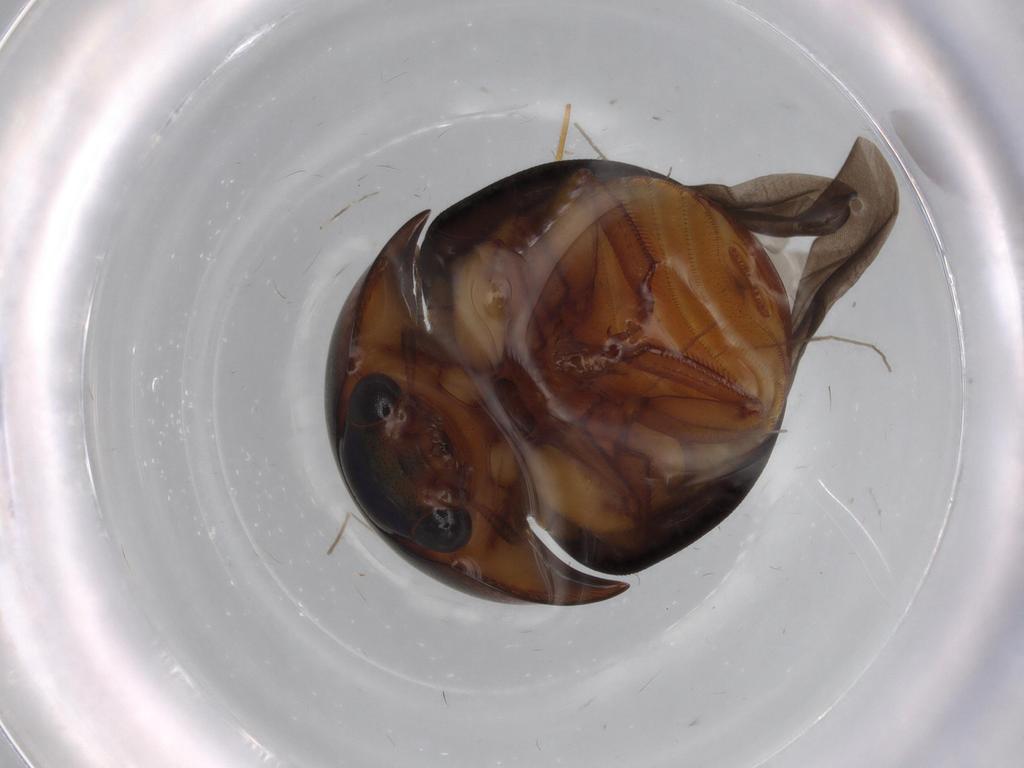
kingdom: Animalia
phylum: Arthropoda
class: Insecta
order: Coleoptera
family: Nitidulidae
